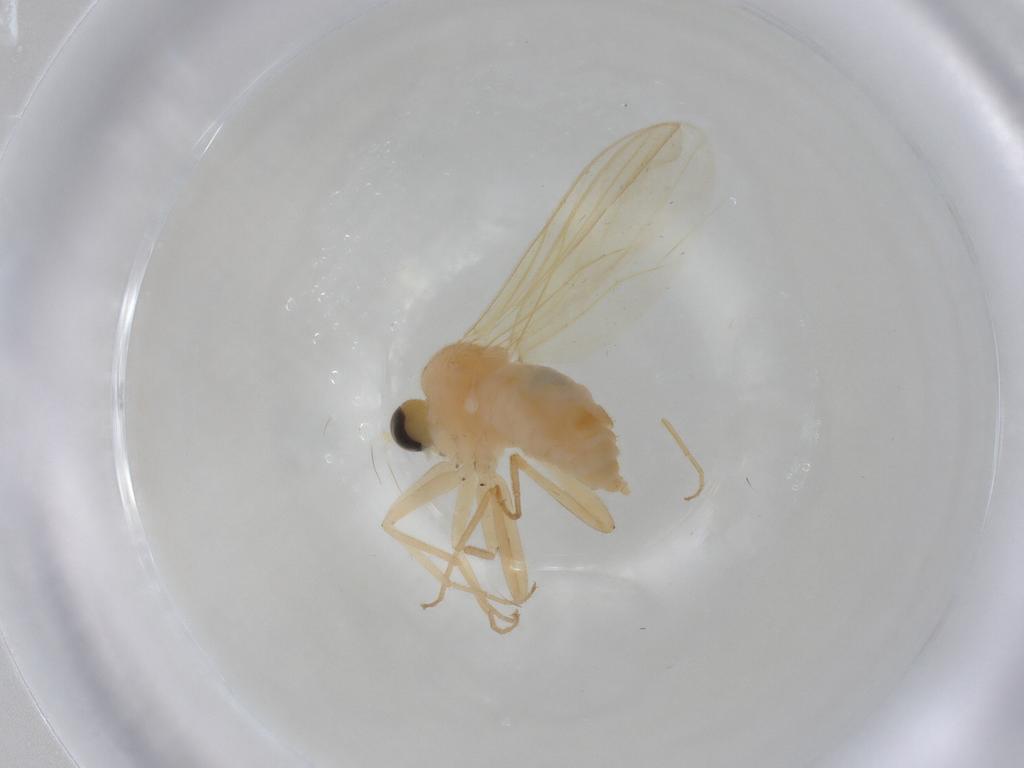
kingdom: Animalia
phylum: Arthropoda
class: Insecta
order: Diptera
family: Hybotidae
